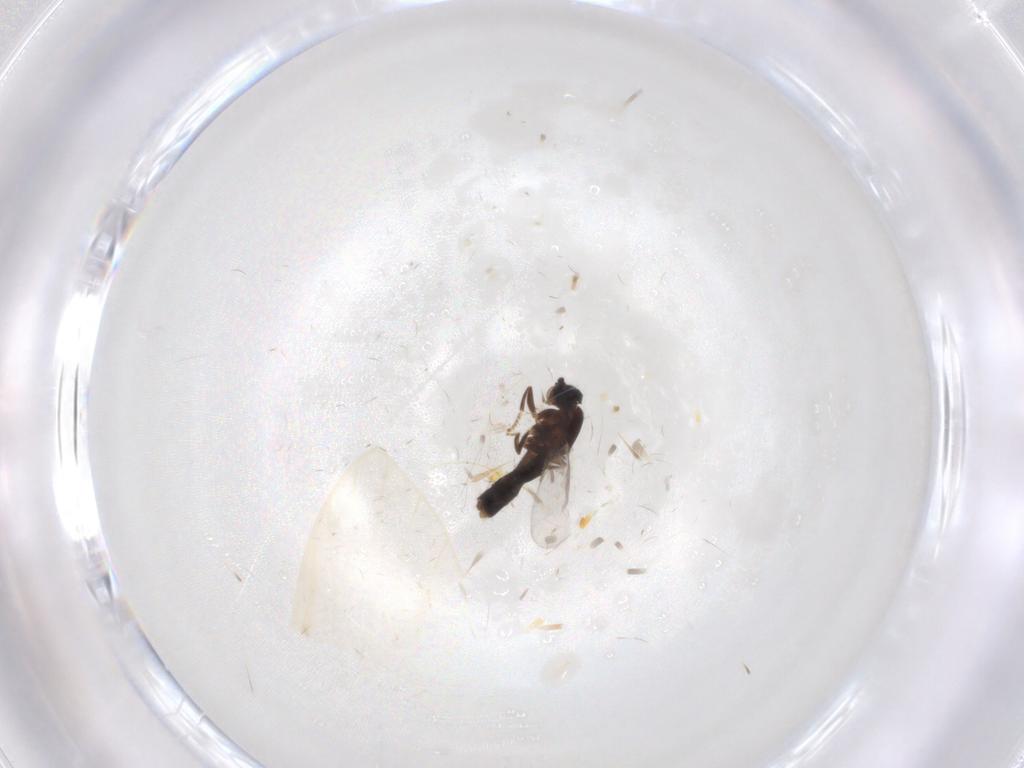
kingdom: Animalia
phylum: Arthropoda
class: Insecta
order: Diptera
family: Scatopsidae
